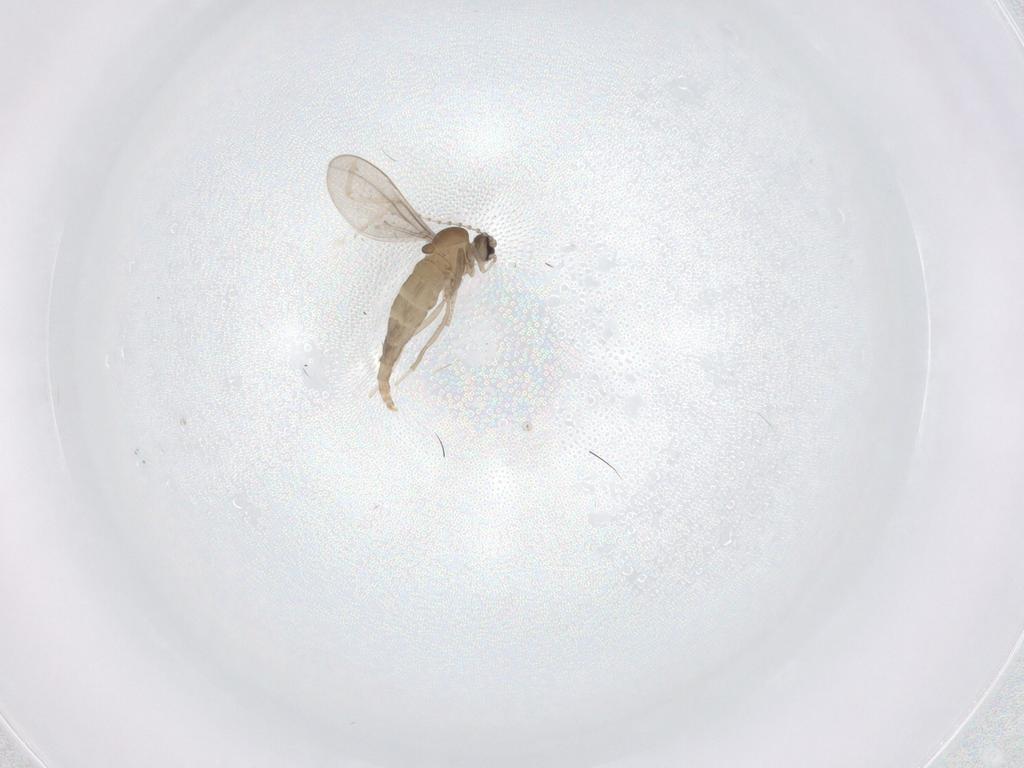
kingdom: Animalia
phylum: Arthropoda
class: Insecta
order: Diptera
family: Cecidomyiidae
